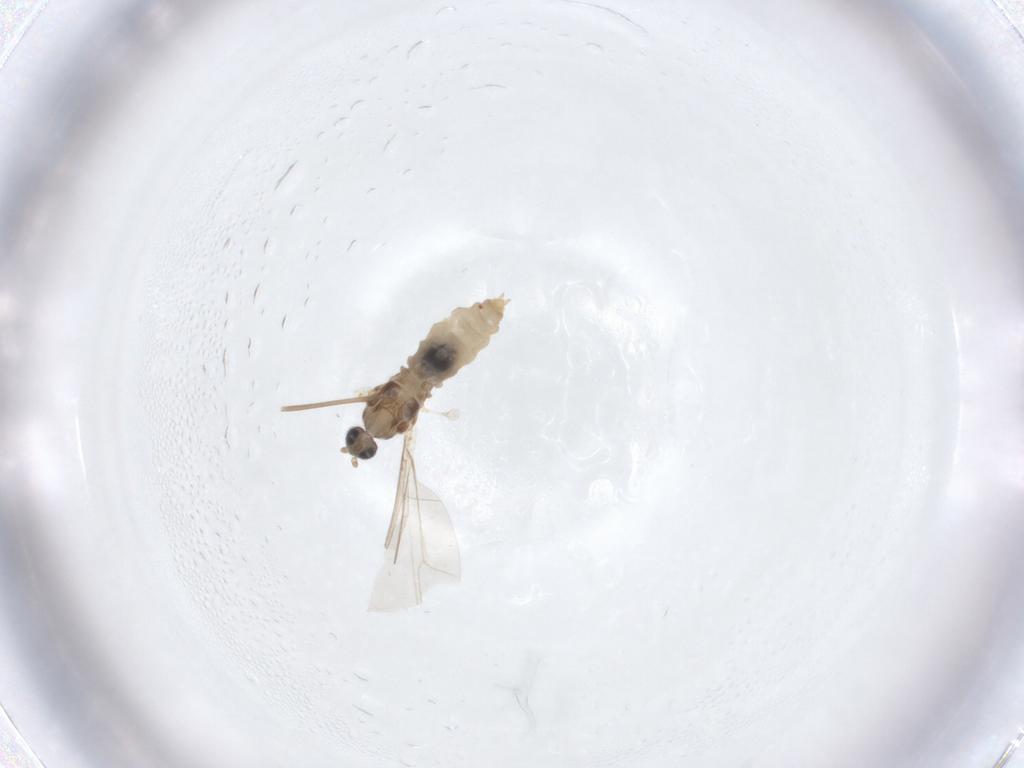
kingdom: Animalia
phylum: Arthropoda
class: Insecta
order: Diptera
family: Cecidomyiidae
